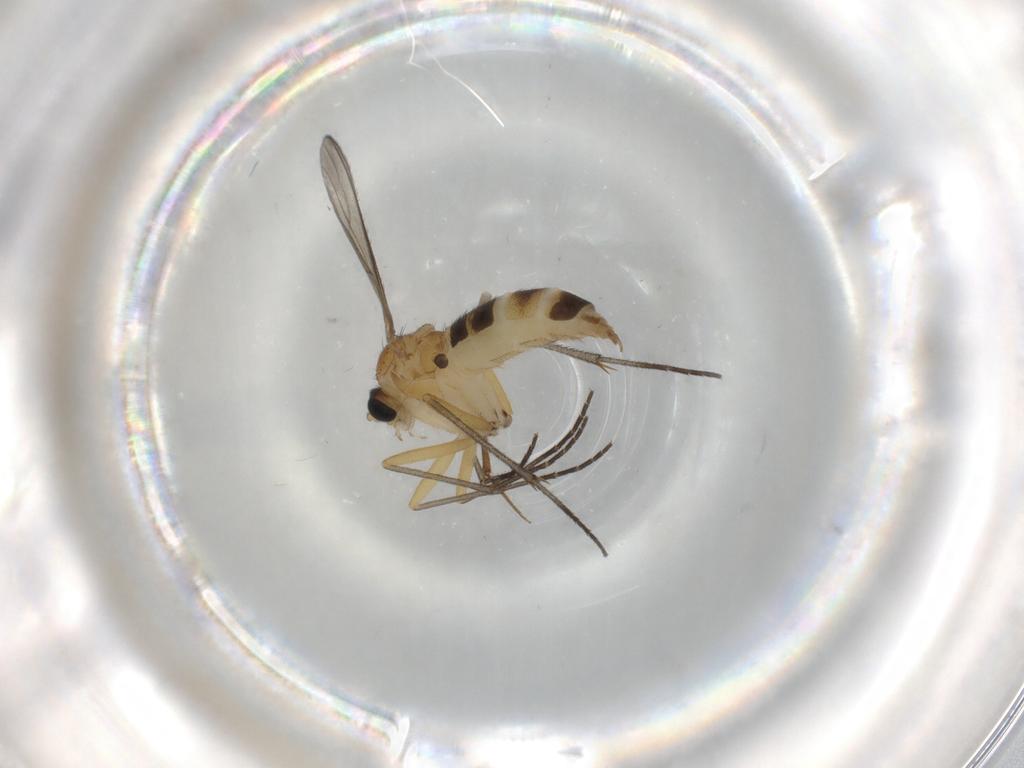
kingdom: Animalia
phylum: Arthropoda
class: Insecta
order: Diptera
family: Sciaridae
